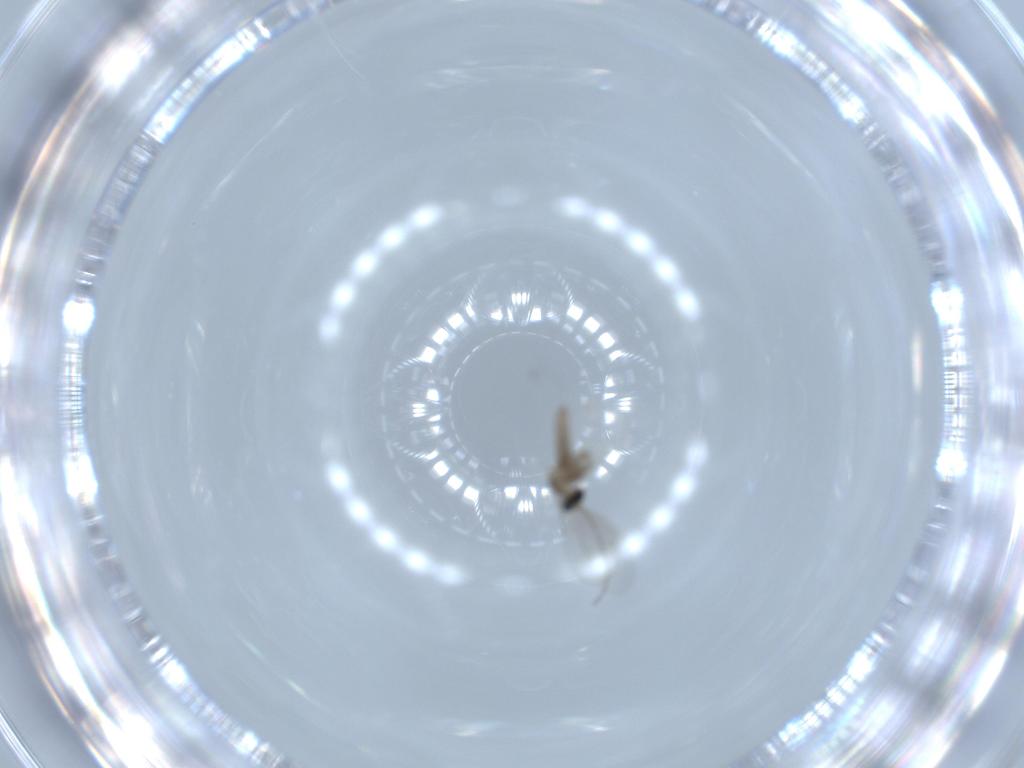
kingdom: Animalia
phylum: Arthropoda
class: Insecta
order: Diptera
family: Cecidomyiidae
